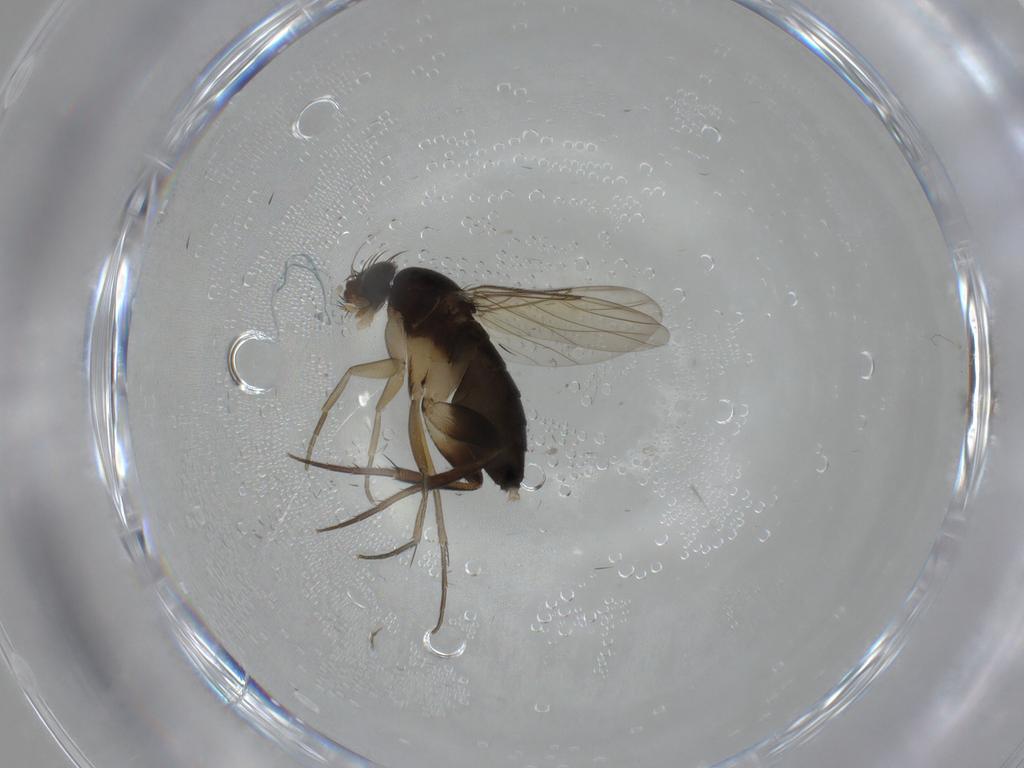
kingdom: Animalia
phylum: Arthropoda
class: Insecta
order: Diptera
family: Phoridae
